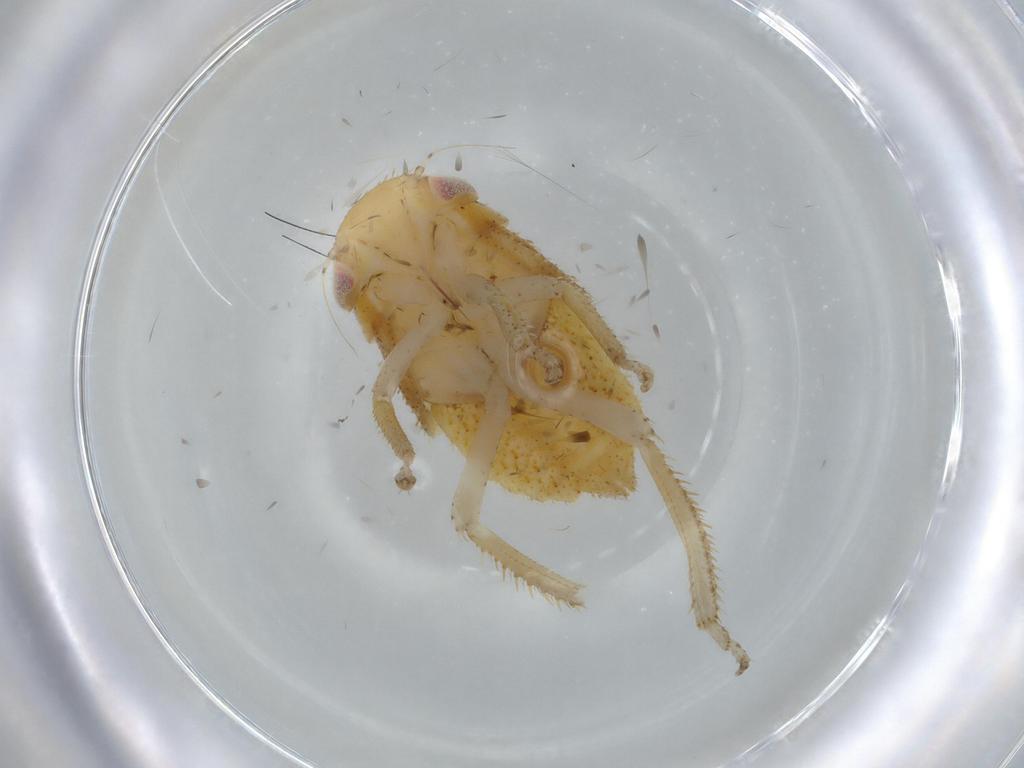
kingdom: Animalia
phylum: Arthropoda
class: Insecta
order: Hemiptera
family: Cicadellidae
